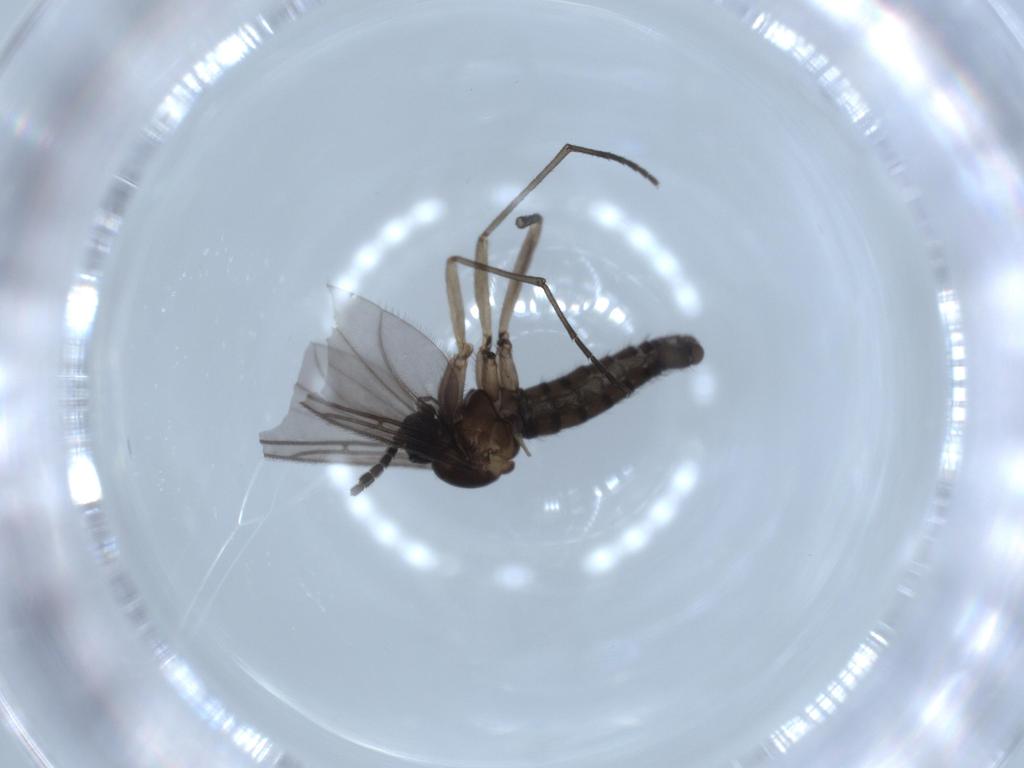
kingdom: Animalia
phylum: Arthropoda
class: Insecta
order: Diptera
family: Sciaridae
